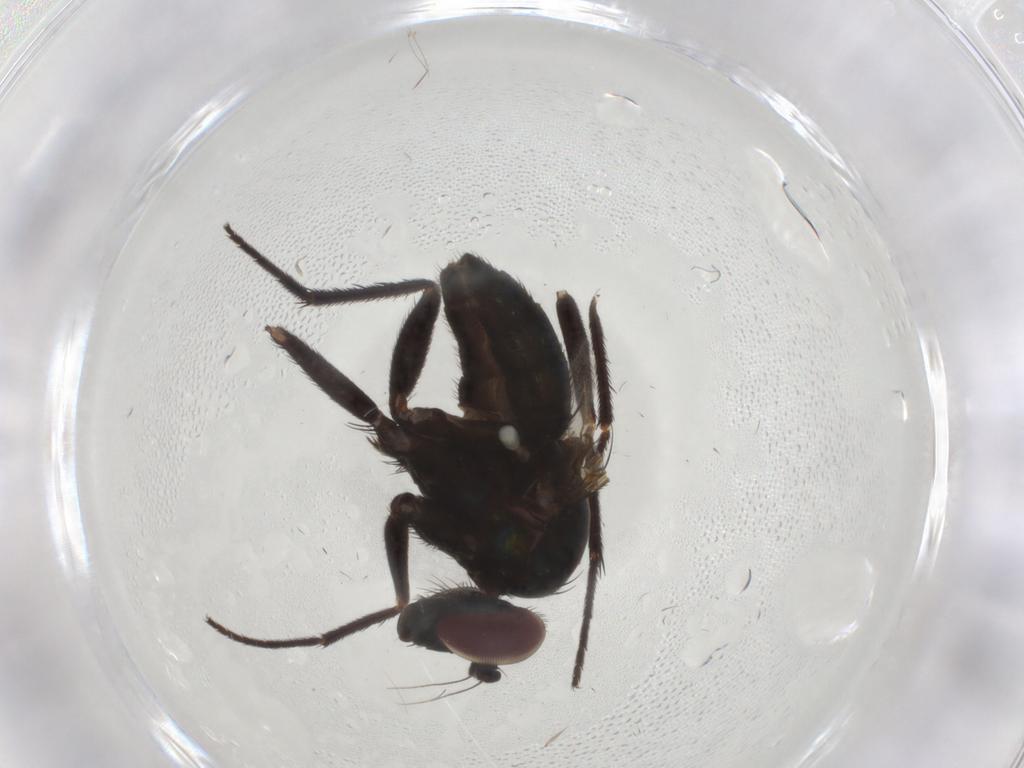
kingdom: Animalia
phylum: Arthropoda
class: Insecta
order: Diptera
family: Dolichopodidae
